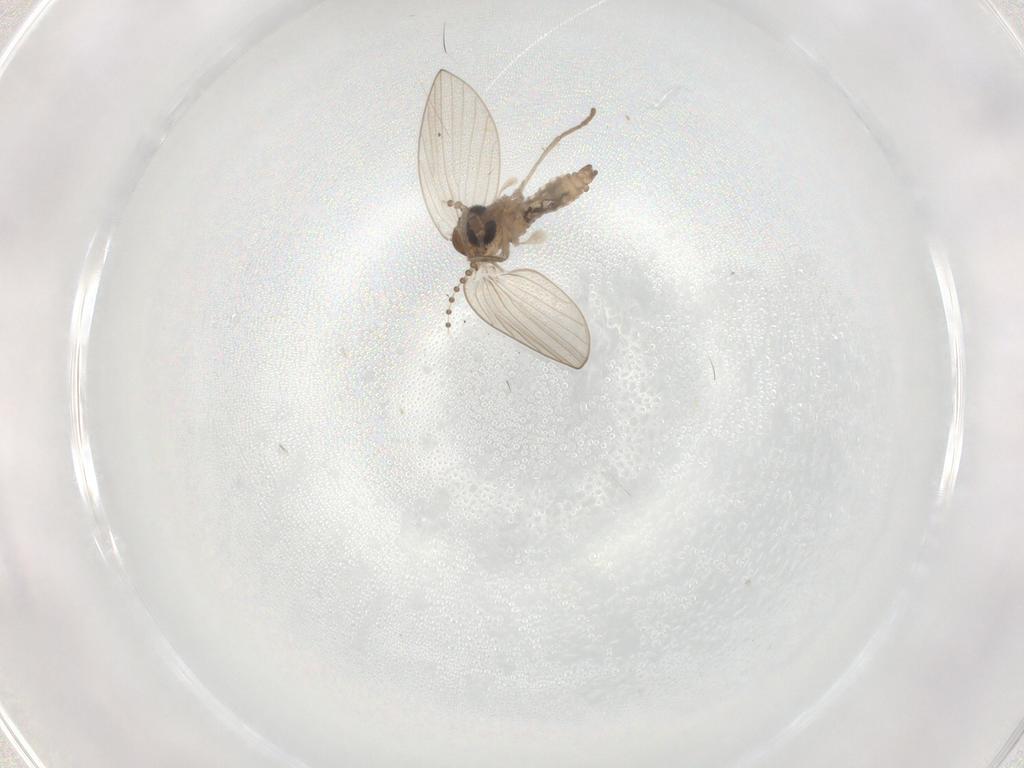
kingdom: Animalia
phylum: Arthropoda
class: Insecta
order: Diptera
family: Psychodidae
